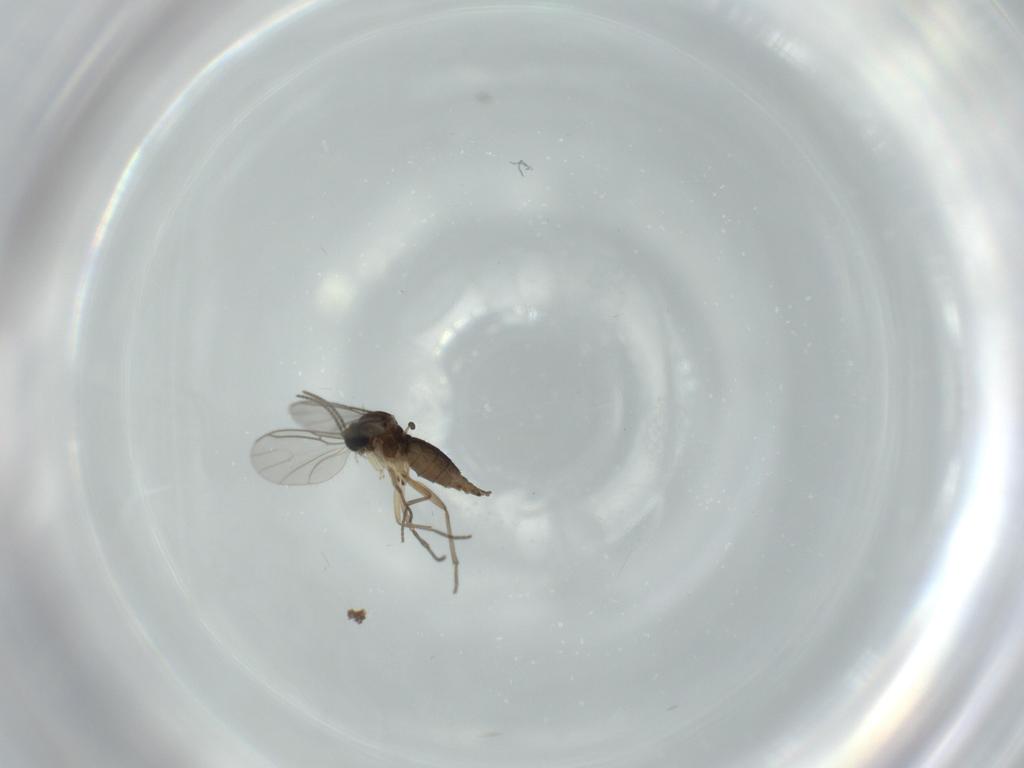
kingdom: Animalia
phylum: Arthropoda
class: Insecta
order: Diptera
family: Sciaridae
